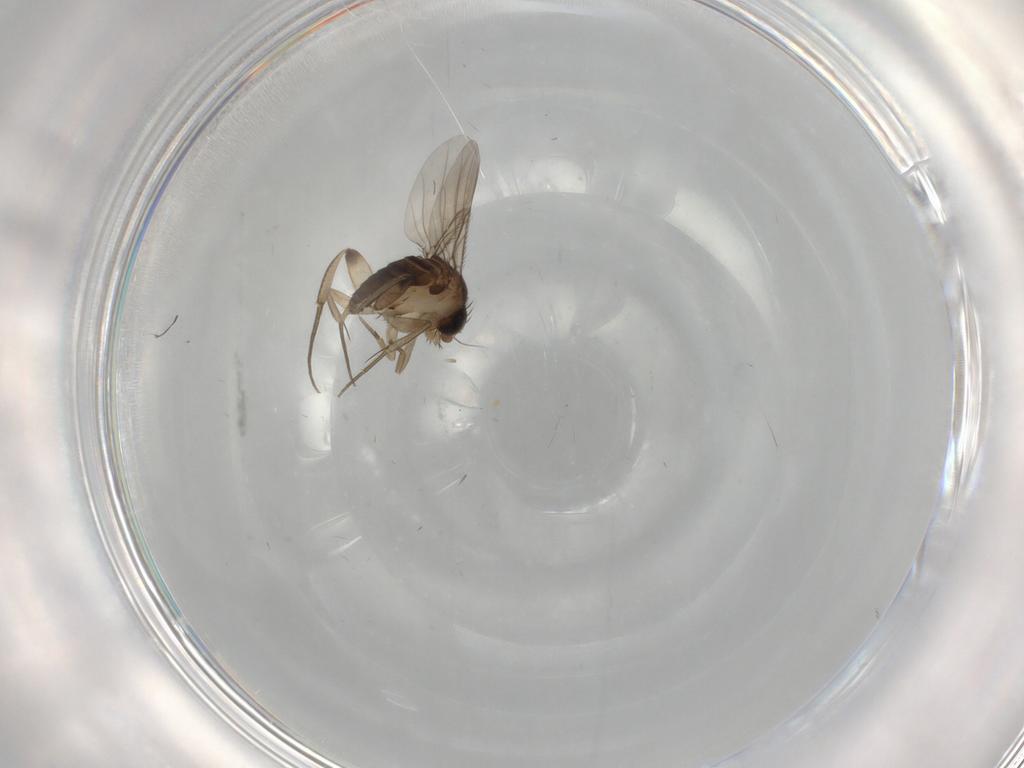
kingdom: Animalia
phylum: Arthropoda
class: Insecta
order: Diptera
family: Phoridae
